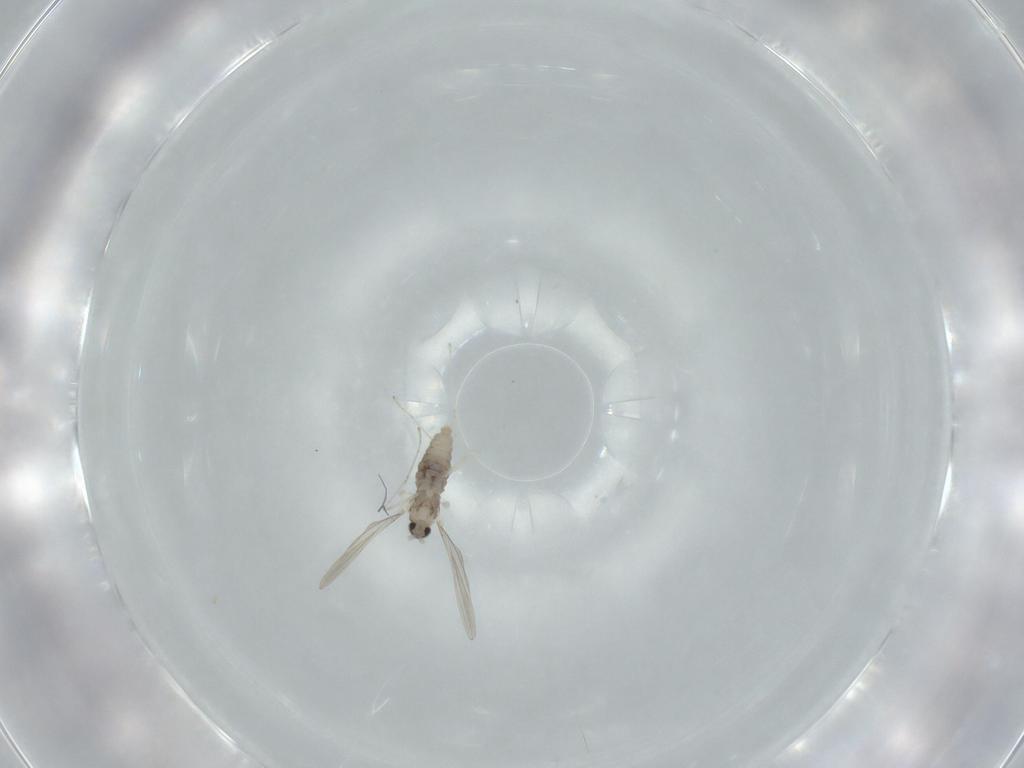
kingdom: Animalia
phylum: Arthropoda
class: Insecta
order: Diptera
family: Cecidomyiidae
